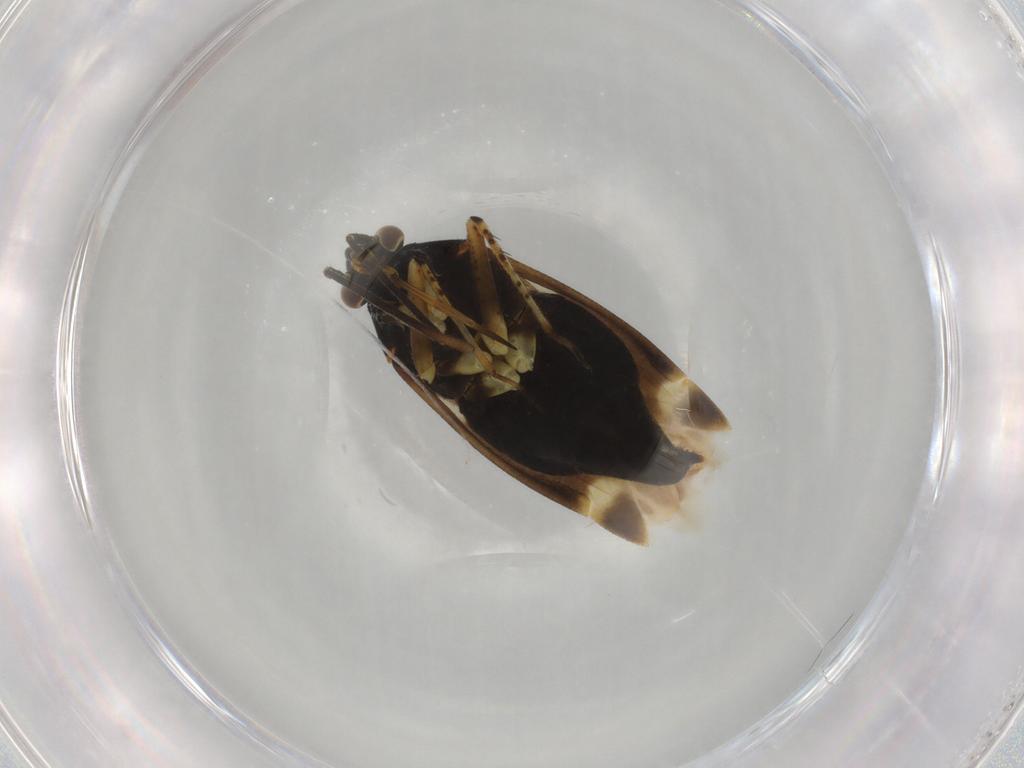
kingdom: Animalia
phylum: Arthropoda
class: Insecta
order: Hemiptera
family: Miridae
